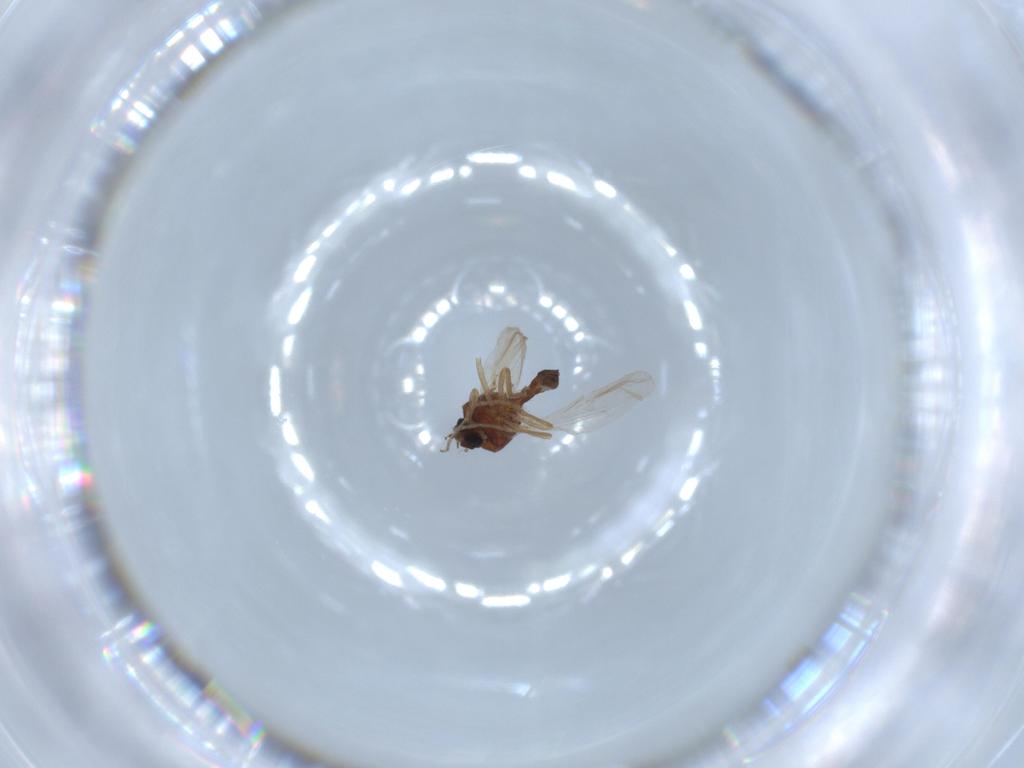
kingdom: Animalia
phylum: Arthropoda
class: Insecta
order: Diptera
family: Ceratopogonidae
